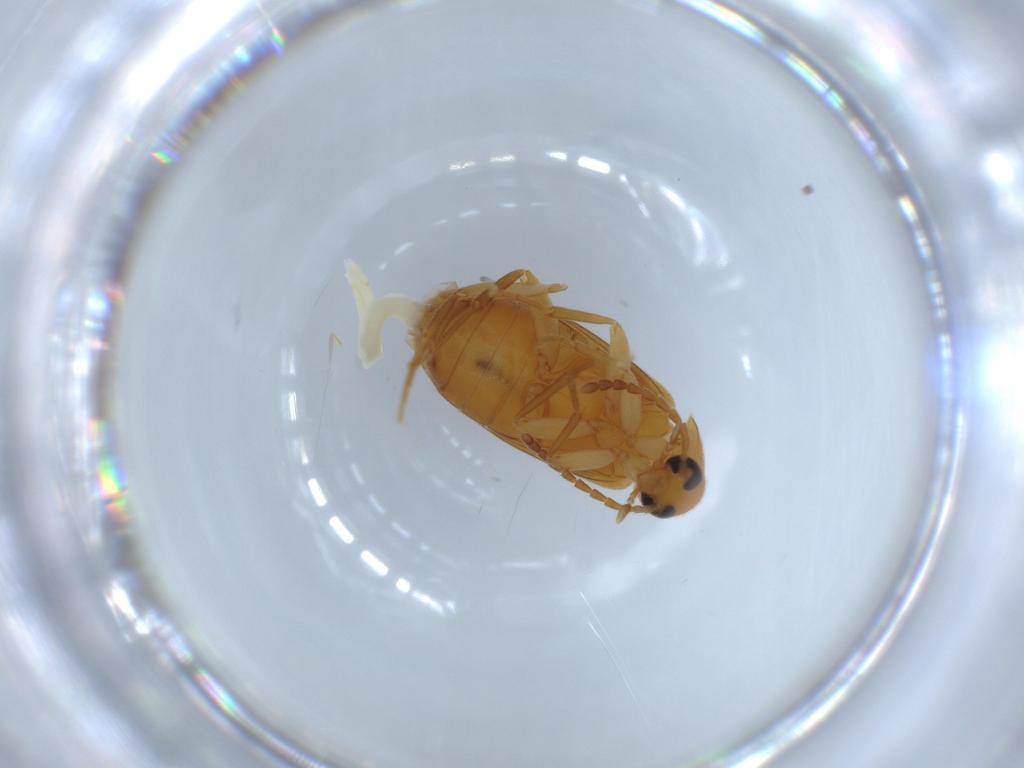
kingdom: Animalia
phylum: Arthropoda
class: Insecta
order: Coleoptera
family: Scraptiidae
